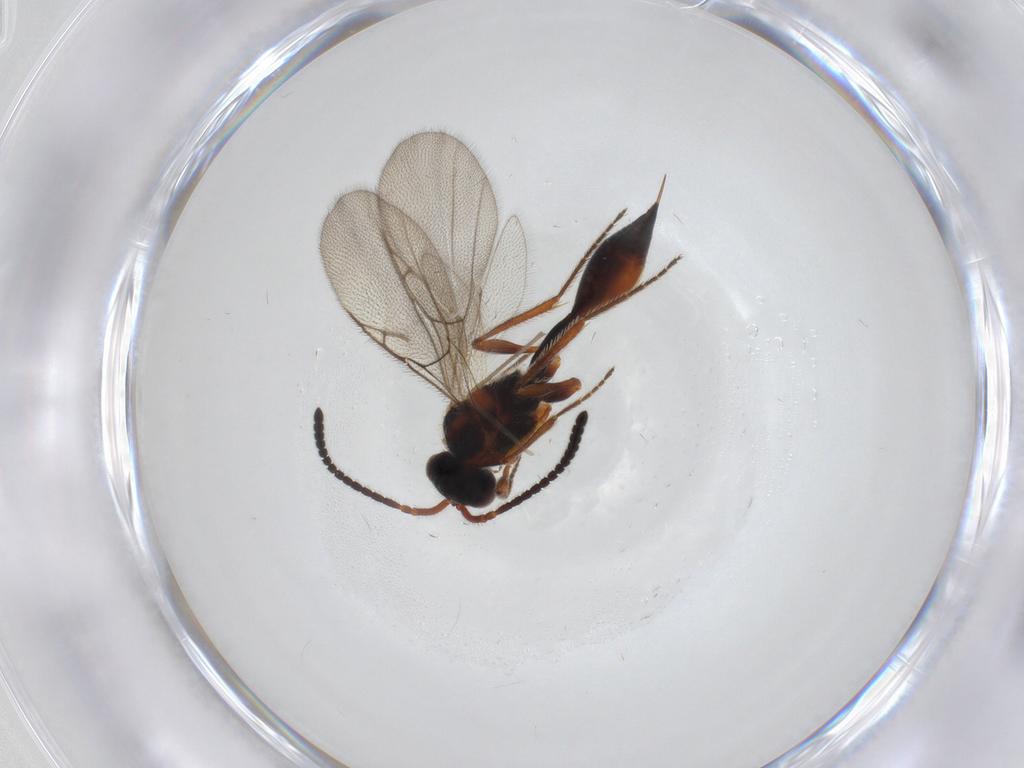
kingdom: Animalia
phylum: Arthropoda
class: Insecta
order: Hymenoptera
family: Diapriidae
